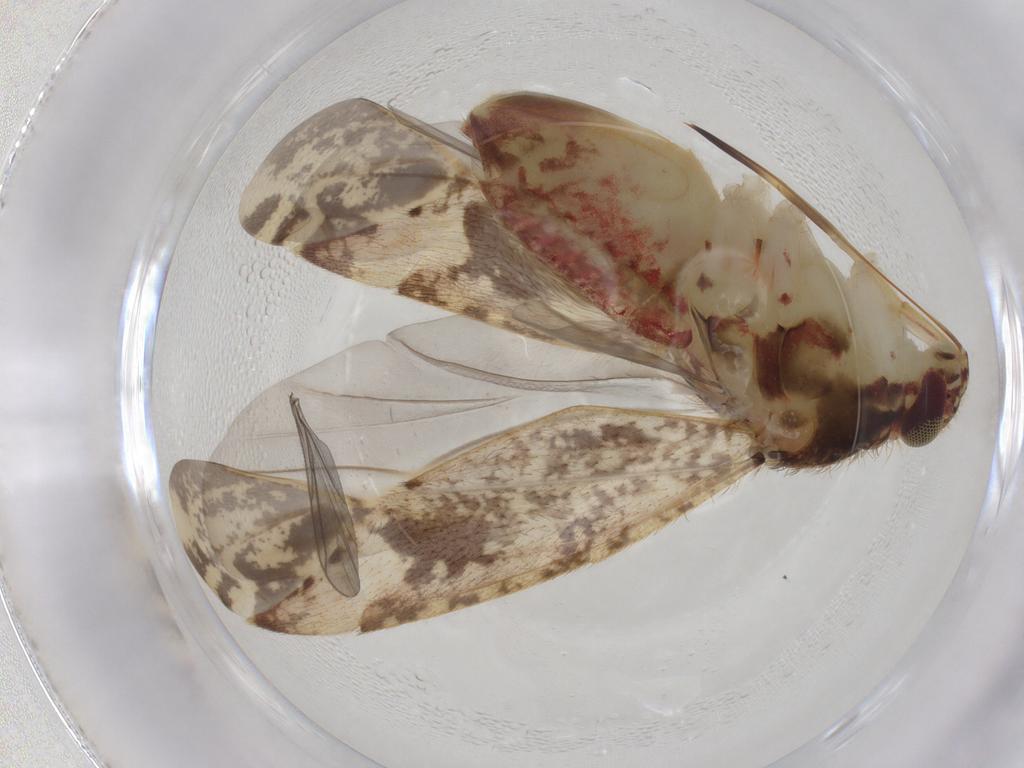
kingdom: Animalia
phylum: Arthropoda
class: Insecta
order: Hemiptera
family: Miridae
